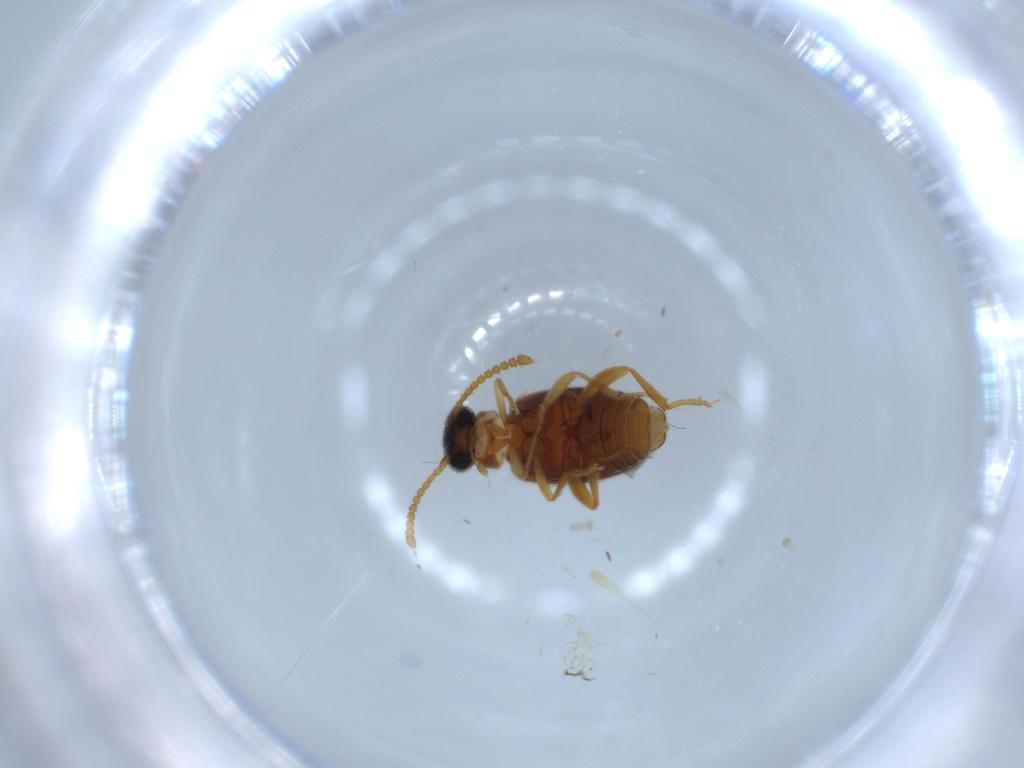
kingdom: Animalia
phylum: Arthropoda
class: Insecta
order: Coleoptera
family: Aderidae
